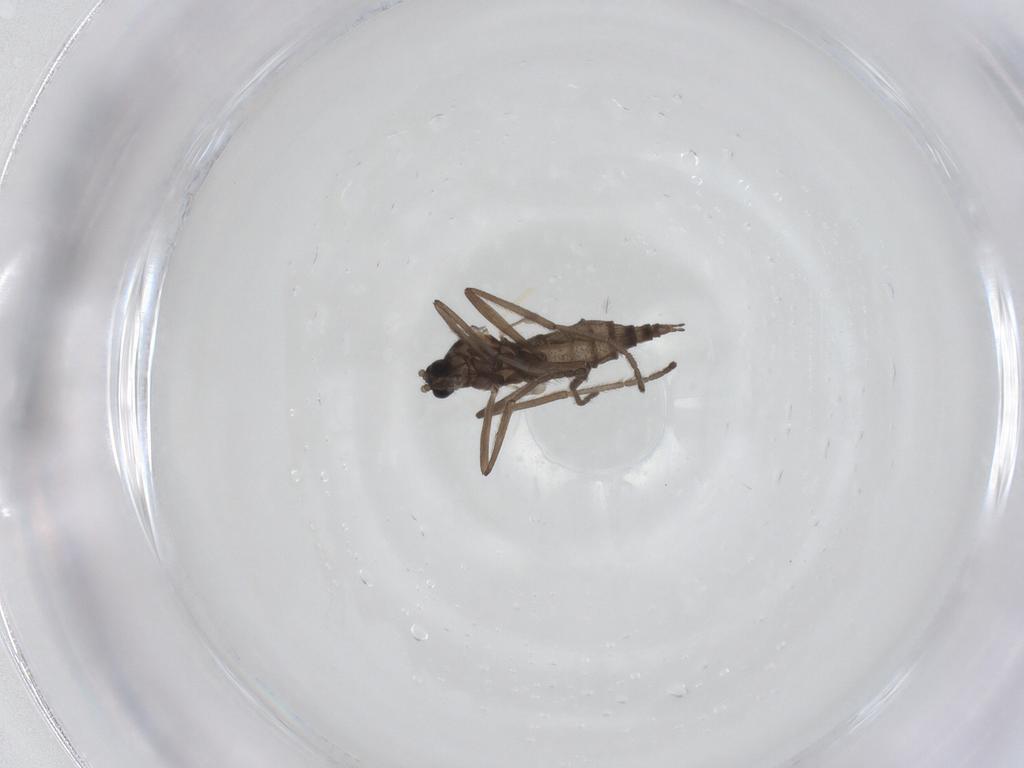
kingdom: Animalia
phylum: Arthropoda
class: Insecta
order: Diptera
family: Cecidomyiidae
